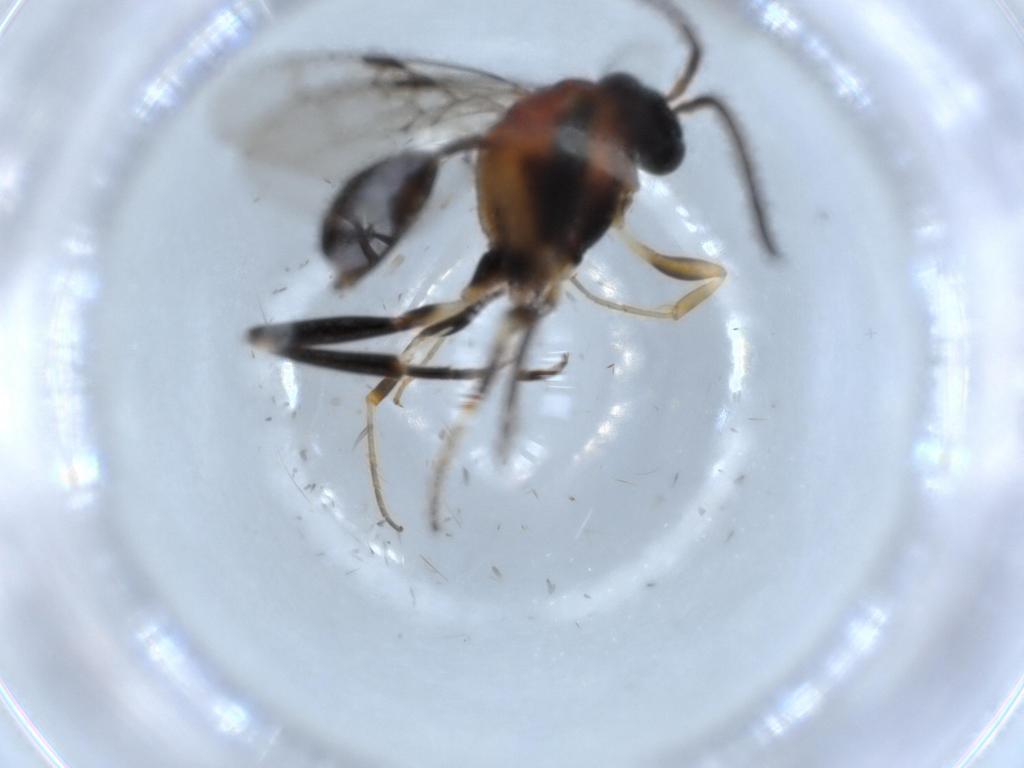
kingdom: Animalia
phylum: Arthropoda
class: Insecta
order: Hymenoptera
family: Evaniidae
